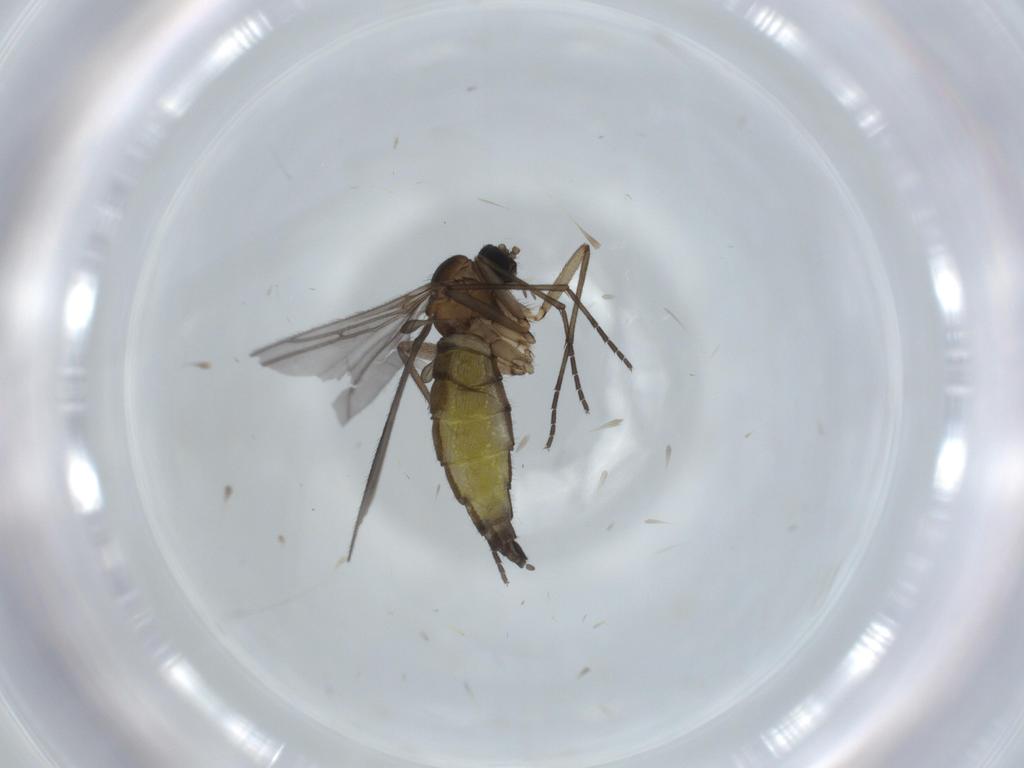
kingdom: Animalia
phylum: Arthropoda
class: Insecta
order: Diptera
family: Sciaridae
